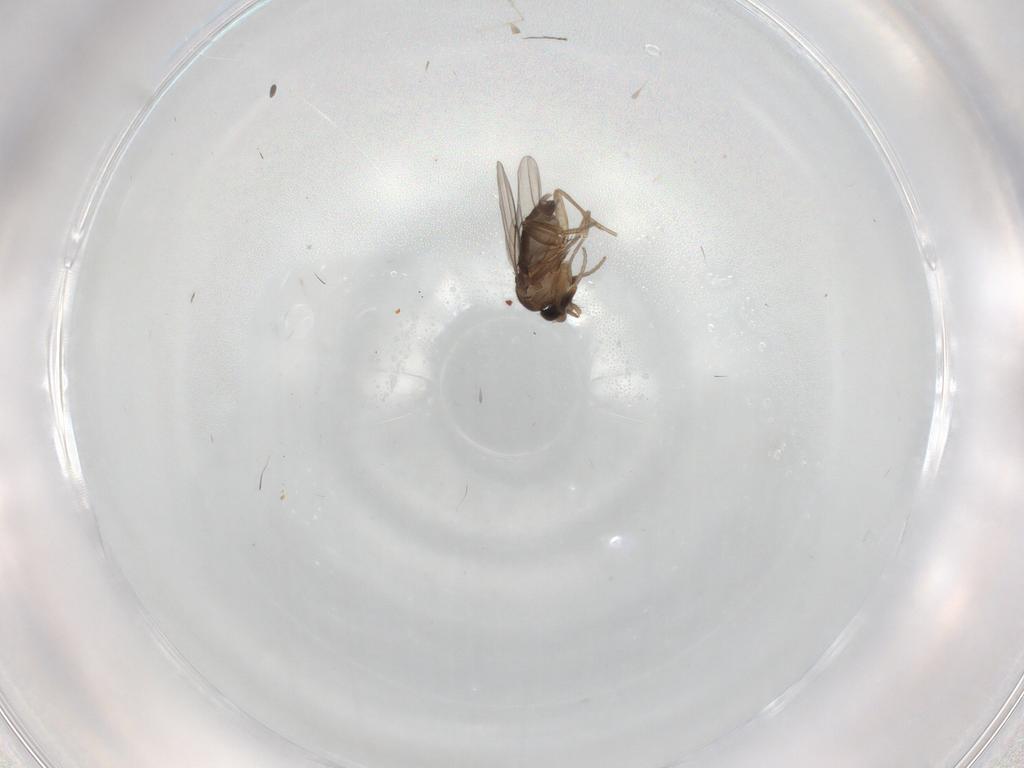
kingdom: Animalia
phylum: Arthropoda
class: Insecta
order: Diptera
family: Phoridae
